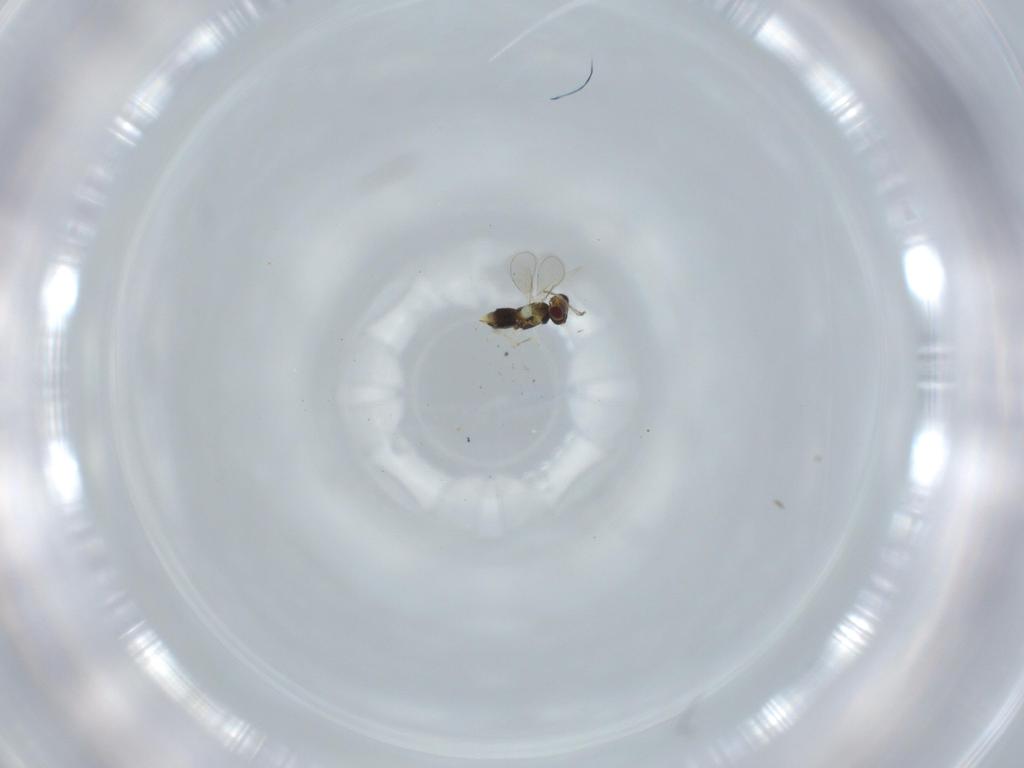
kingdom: Animalia
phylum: Arthropoda
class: Insecta
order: Hymenoptera
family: Aphelinidae
